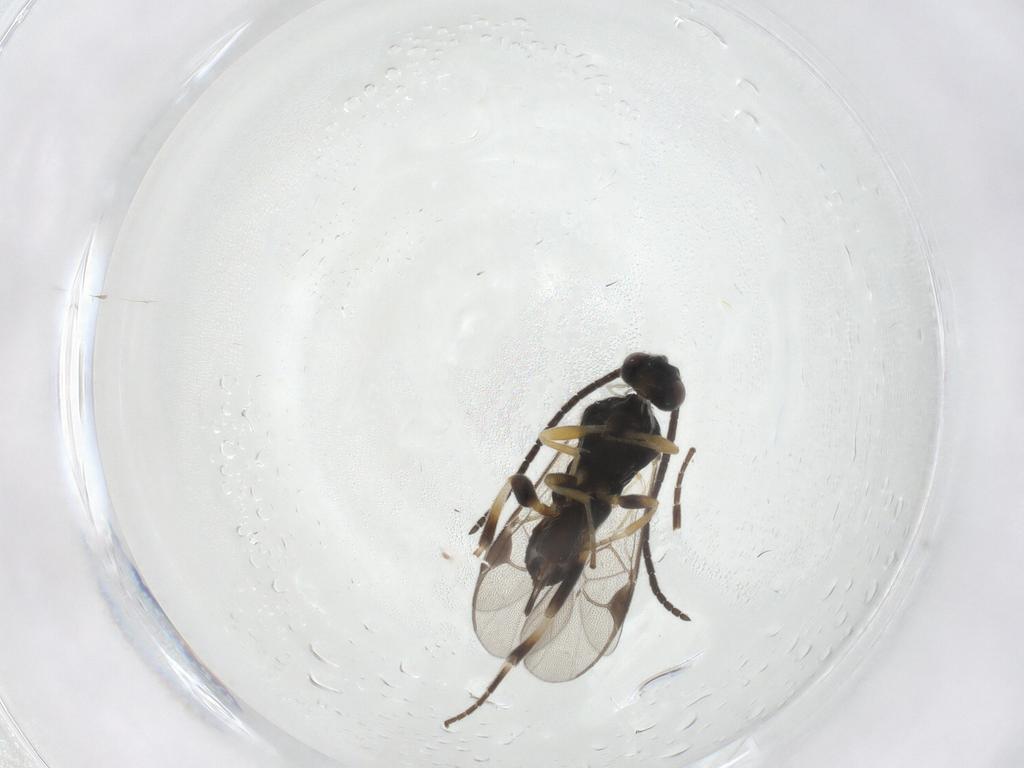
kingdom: Animalia
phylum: Arthropoda
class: Insecta
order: Hymenoptera
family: Braconidae
